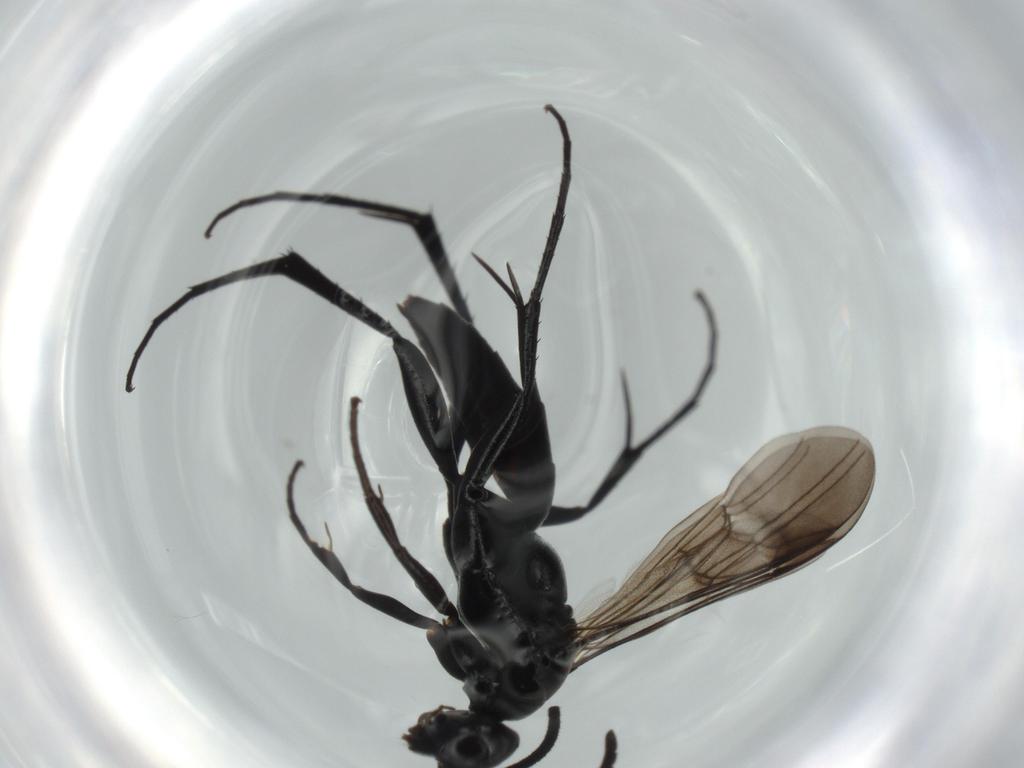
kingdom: Animalia
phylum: Arthropoda
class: Insecta
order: Hymenoptera
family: Pompilidae
